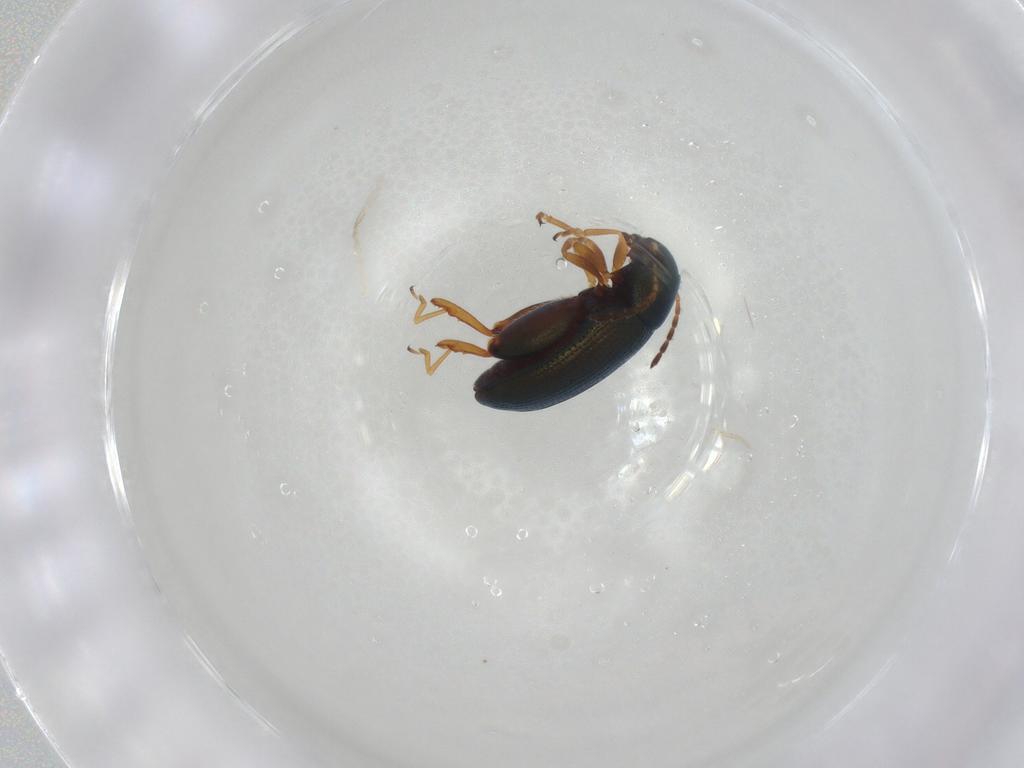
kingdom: Animalia
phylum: Arthropoda
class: Insecta
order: Coleoptera
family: Chrysomelidae
